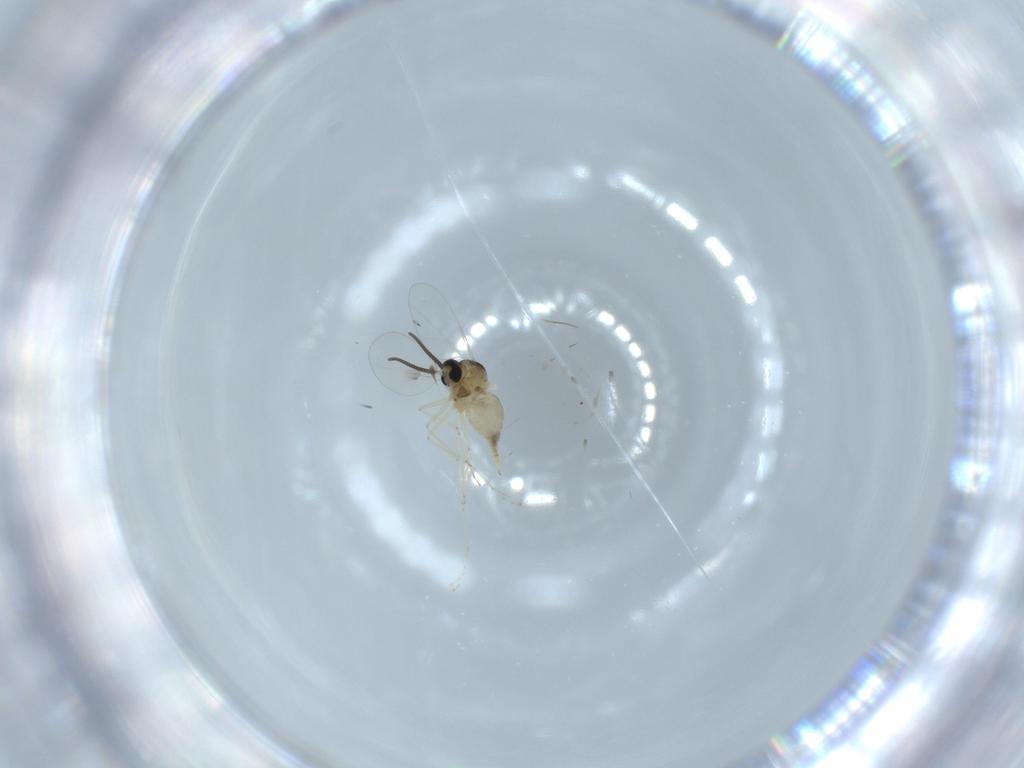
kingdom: Animalia
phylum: Arthropoda
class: Insecta
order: Diptera
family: Cecidomyiidae
